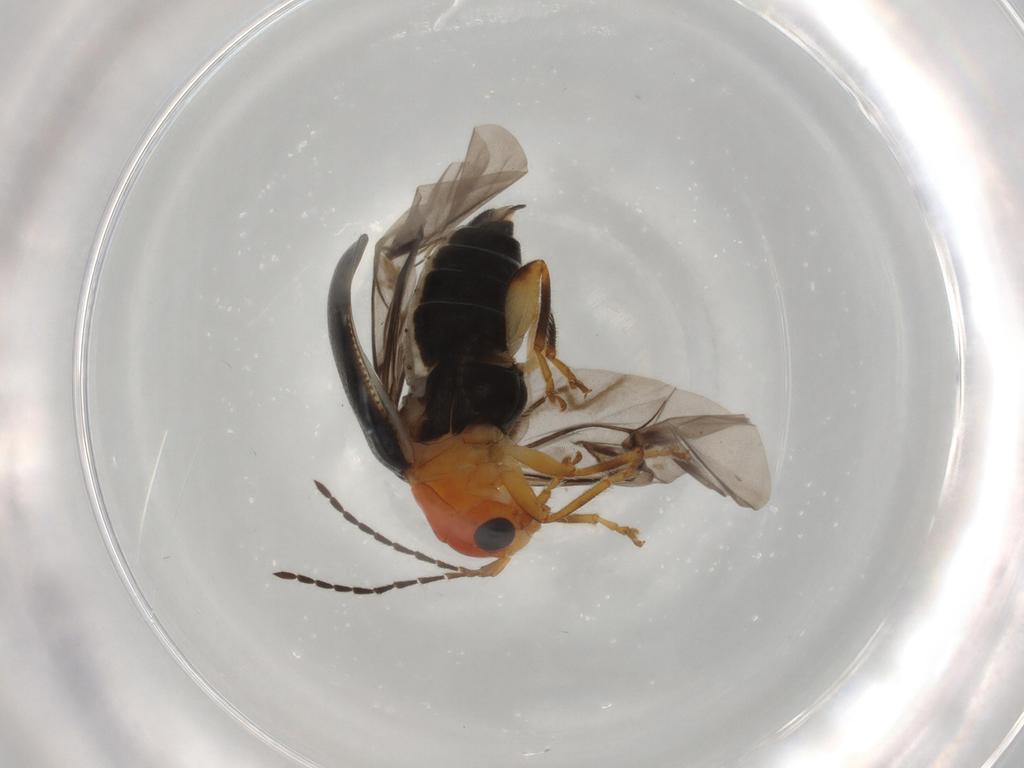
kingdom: Animalia
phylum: Arthropoda
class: Insecta
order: Coleoptera
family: Chrysomelidae
